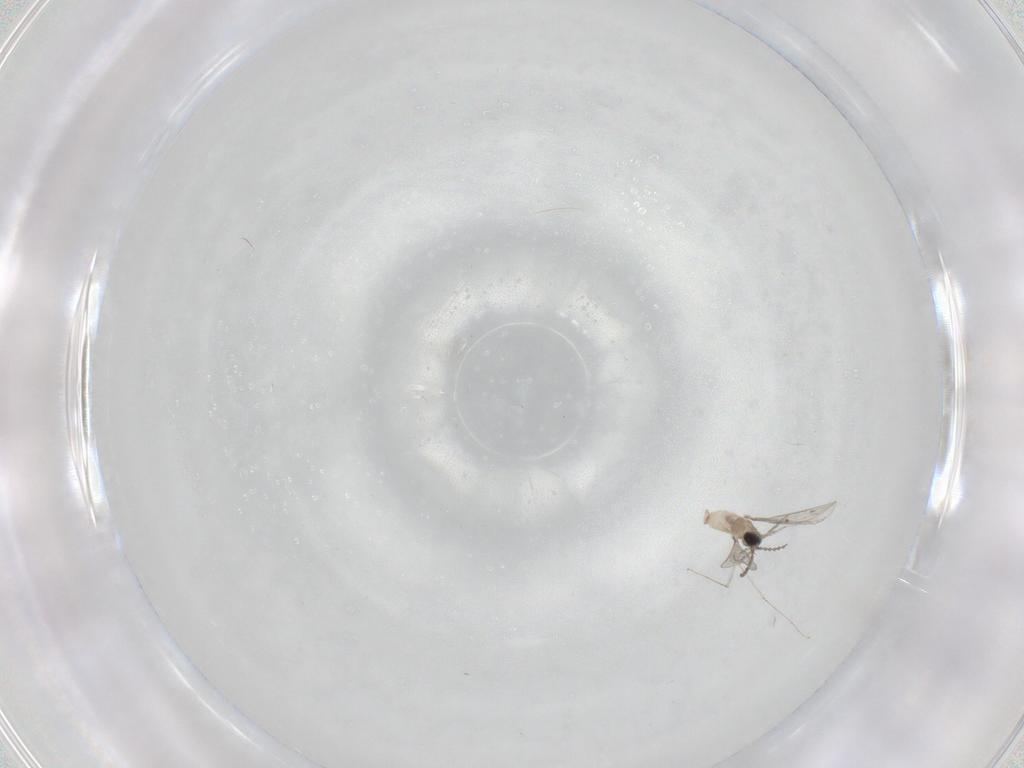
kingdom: Animalia
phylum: Arthropoda
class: Insecta
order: Diptera
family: Cecidomyiidae
